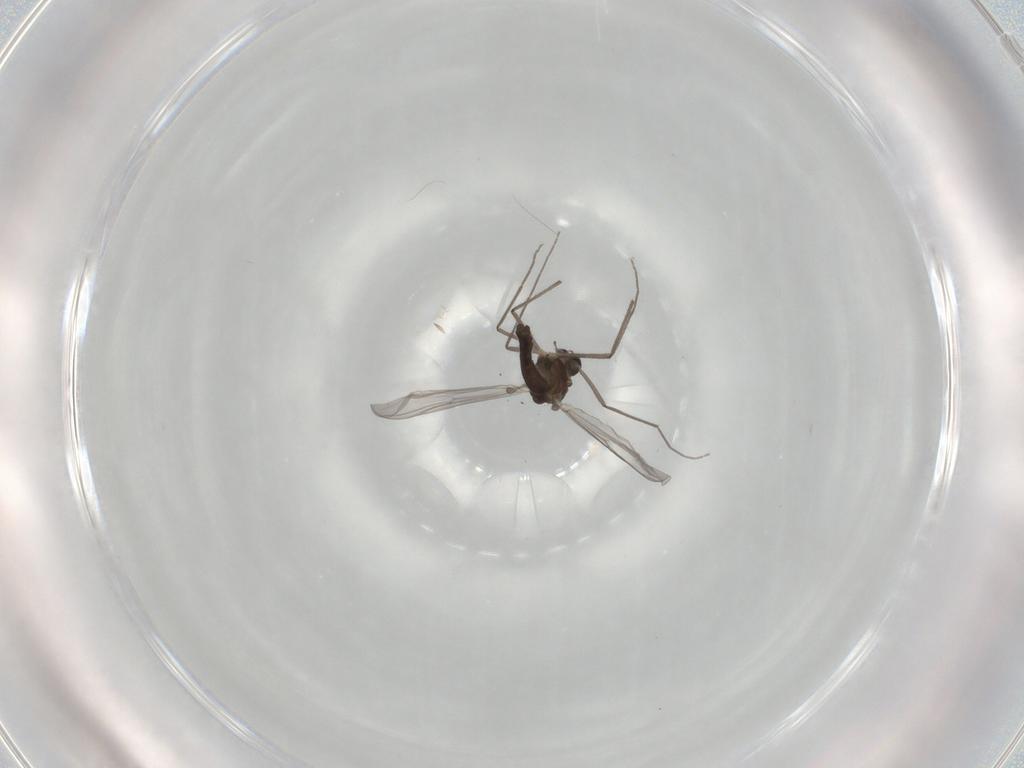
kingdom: Animalia
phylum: Arthropoda
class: Insecta
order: Diptera
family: Chironomidae
